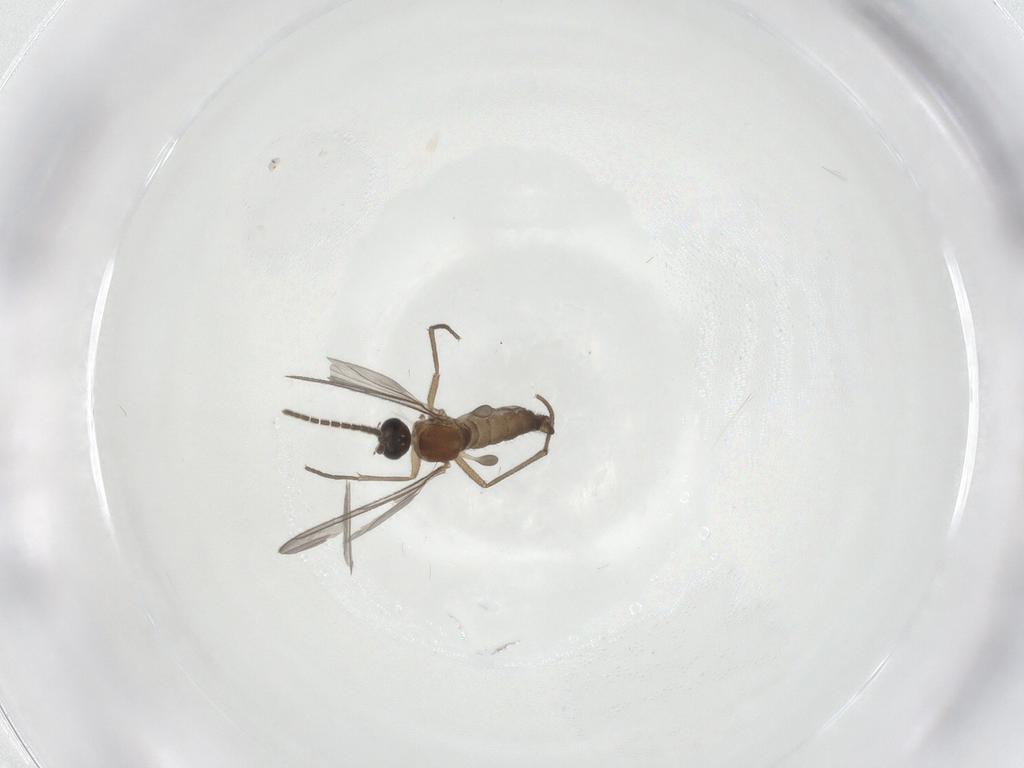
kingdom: Animalia
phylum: Arthropoda
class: Insecta
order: Diptera
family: Sciaridae
